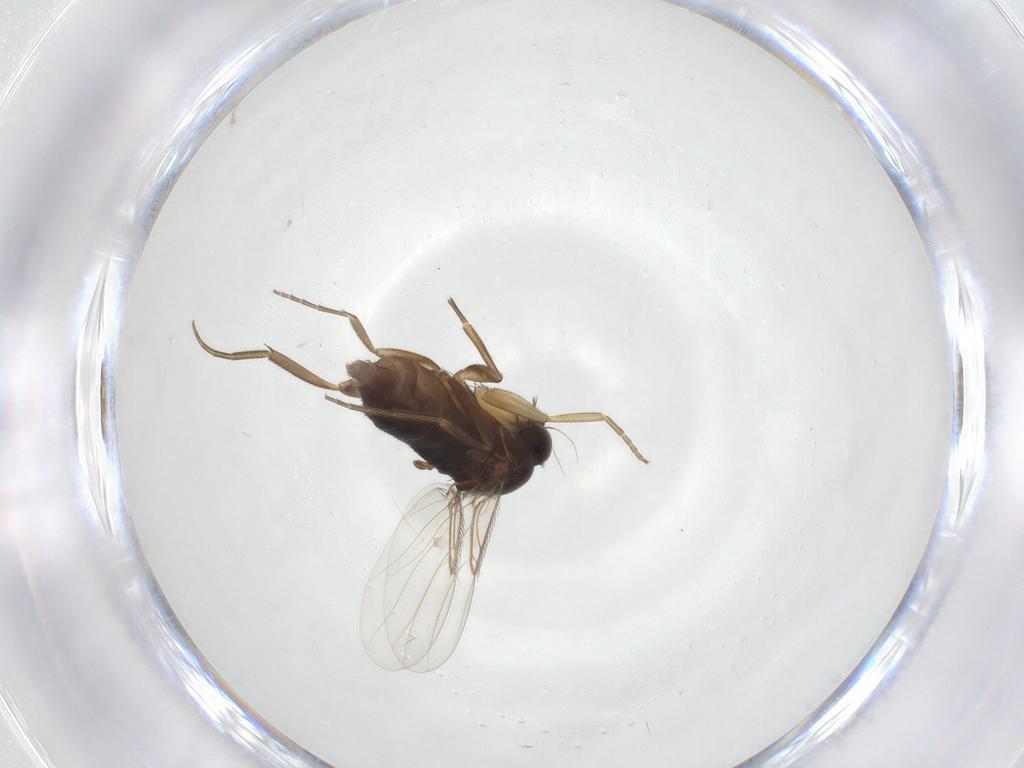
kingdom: Animalia
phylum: Arthropoda
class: Insecta
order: Diptera
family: Phoridae
